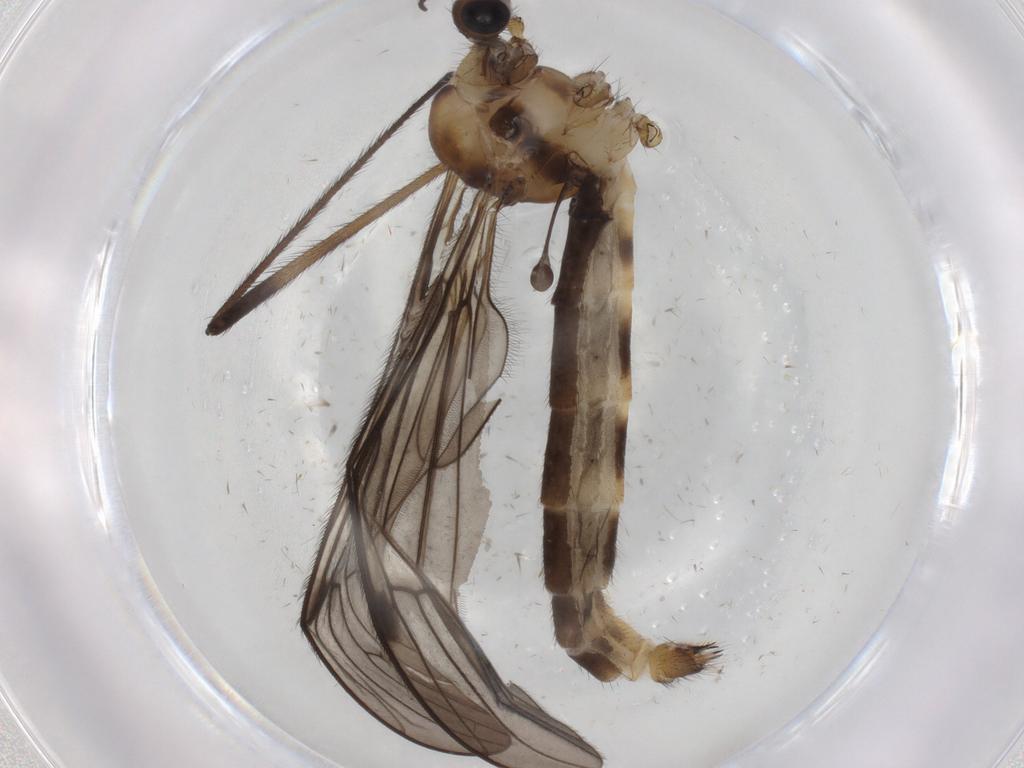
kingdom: Animalia
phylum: Arthropoda
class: Insecta
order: Diptera
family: Limoniidae
